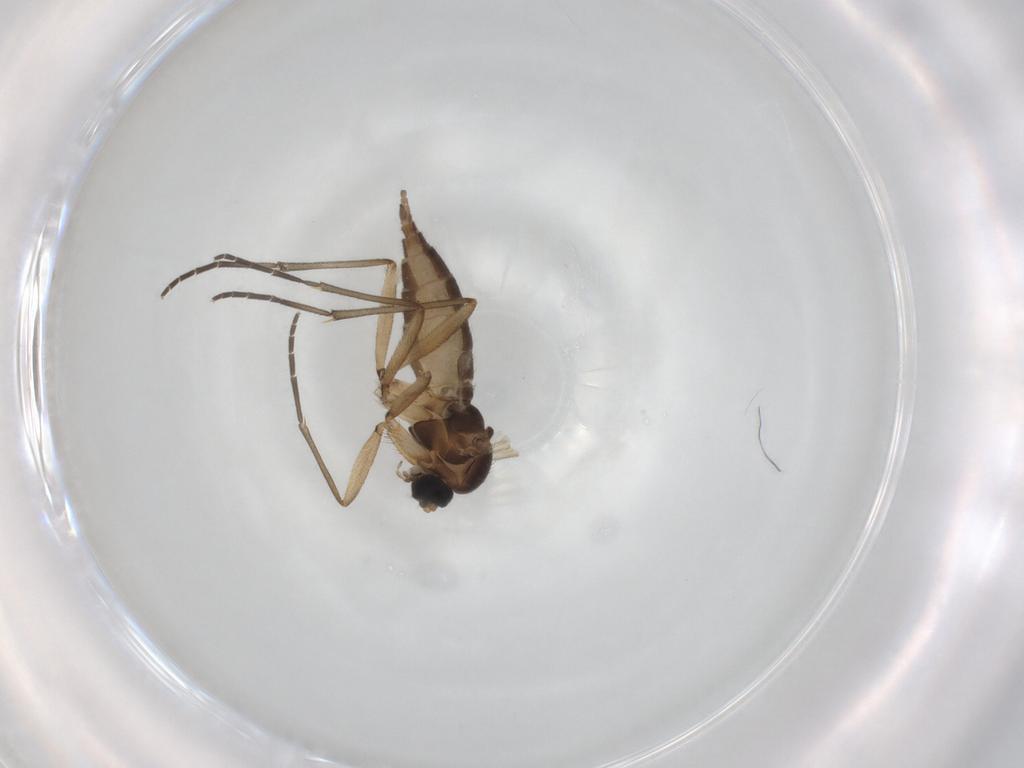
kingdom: Animalia
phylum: Arthropoda
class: Insecta
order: Diptera
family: Sciaridae
